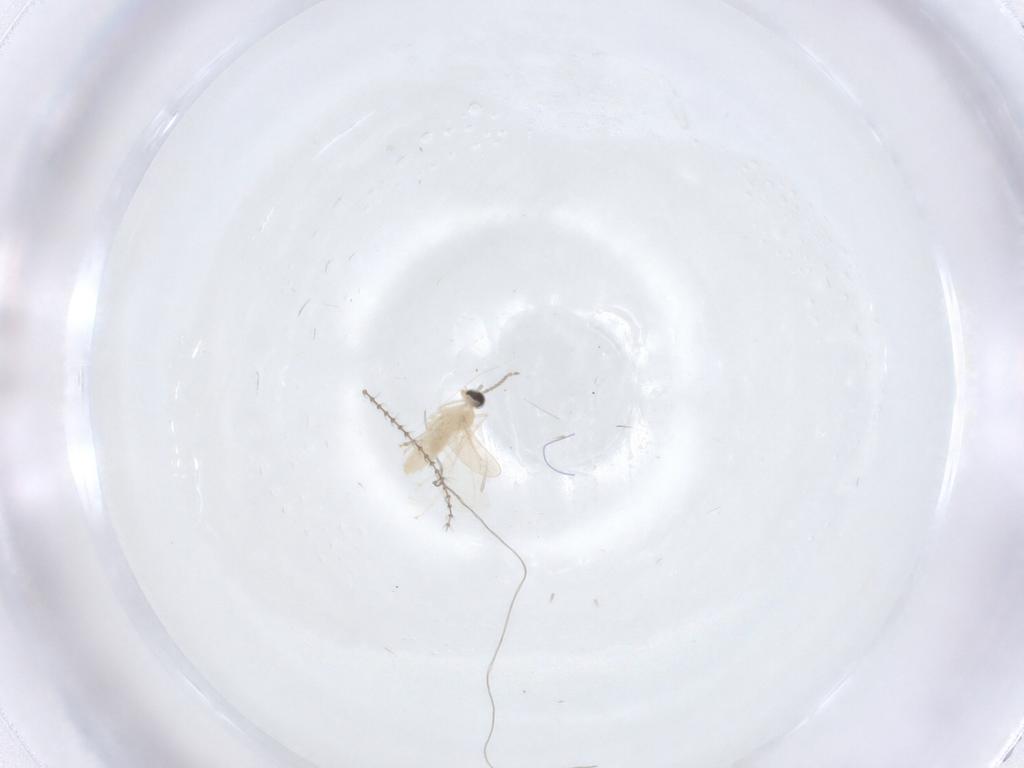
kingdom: Animalia
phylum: Arthropoda
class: Insecta
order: Diptera
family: Cecidomyiidae
